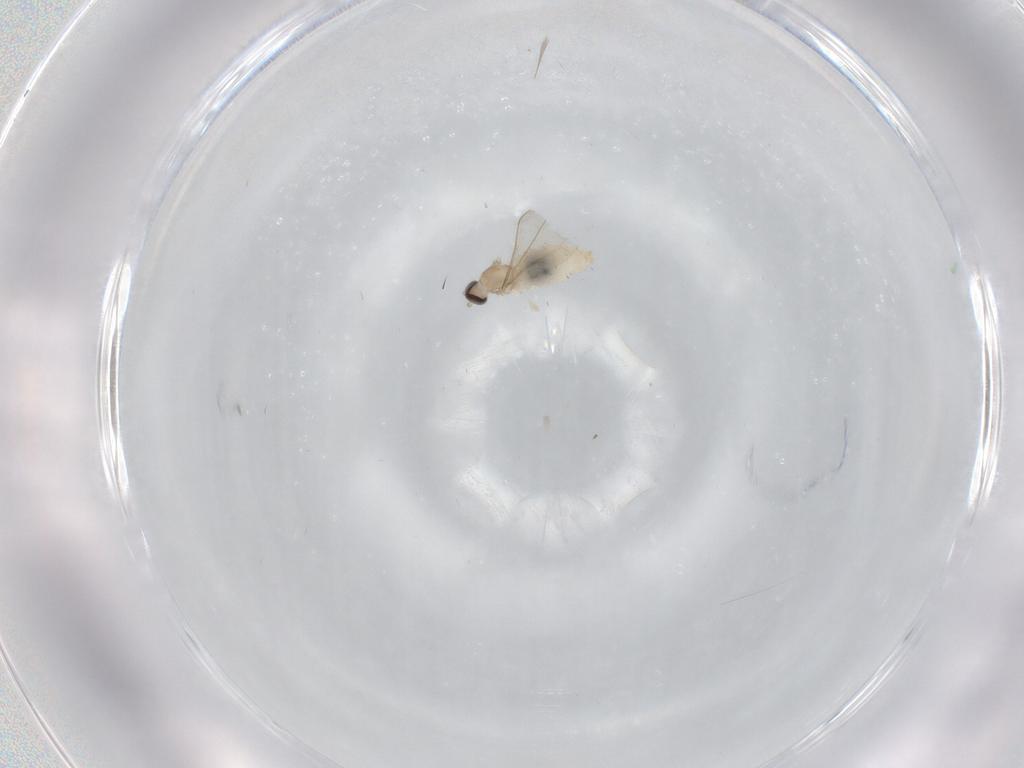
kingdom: Animalia
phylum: Arthropoda
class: Insecta
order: Diptera
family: Cecidomyiidae
